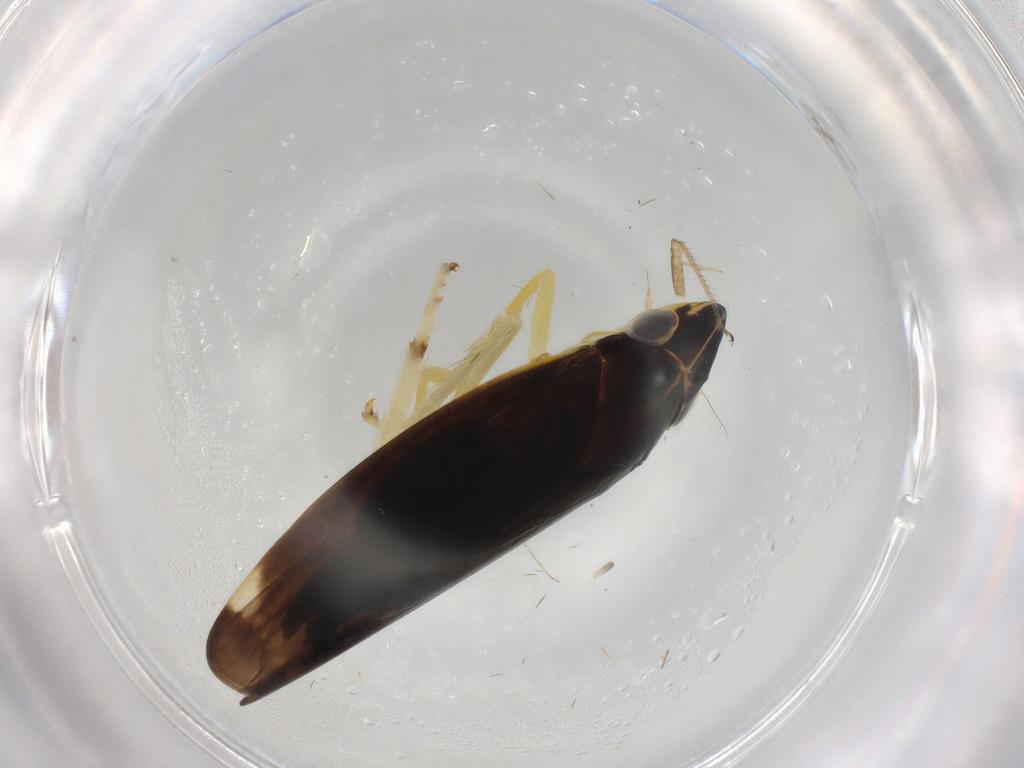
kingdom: Animalia
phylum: Arthropoda
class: Insecta
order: Hemiptera
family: Cicadellidae
